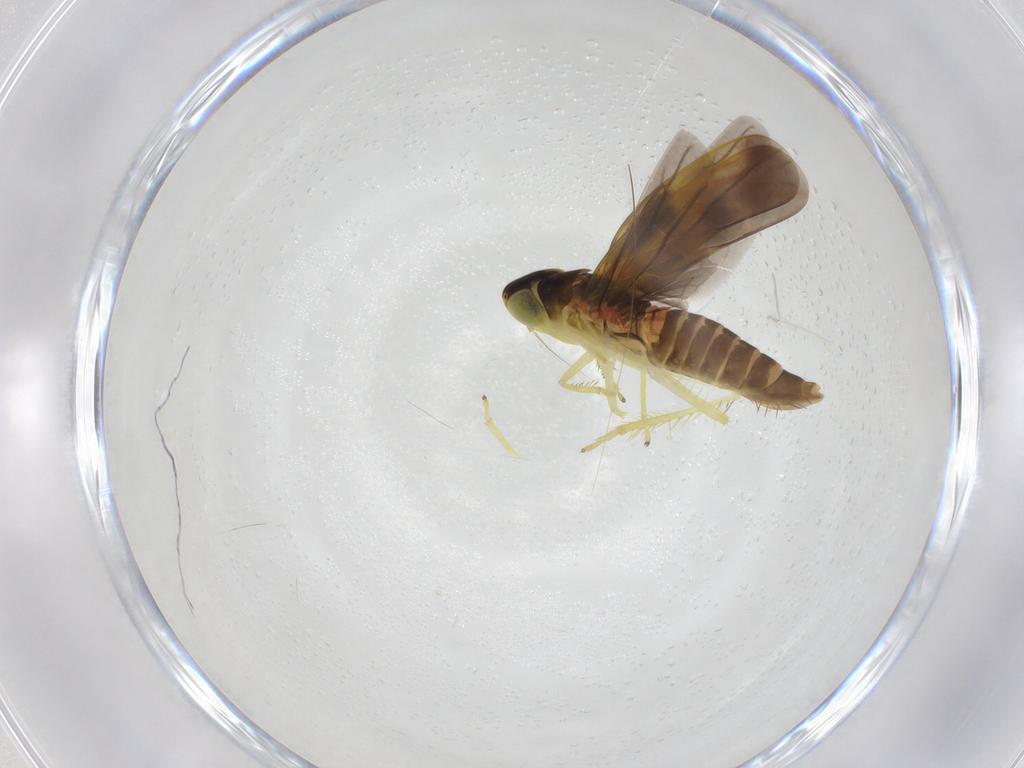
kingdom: Animalia
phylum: Arthropoda
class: Insecta
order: Hemiptera
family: Cicadellidae
